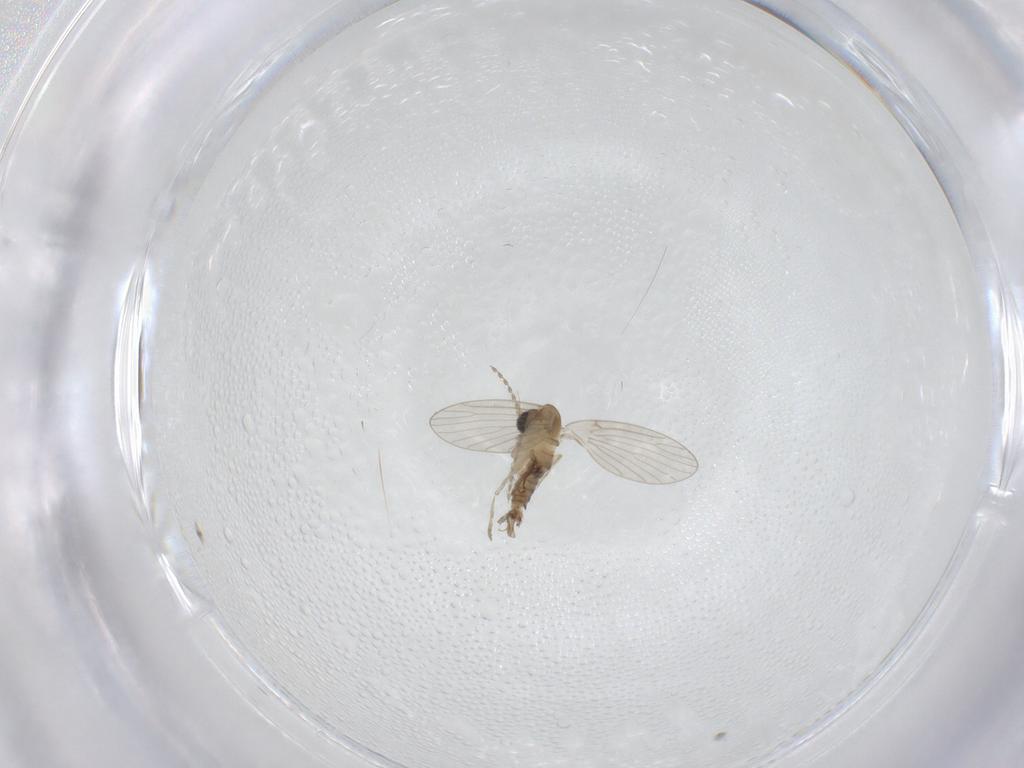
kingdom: Animalia
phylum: Arthropoda
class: Insecta
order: Diptera
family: Psychodidae
